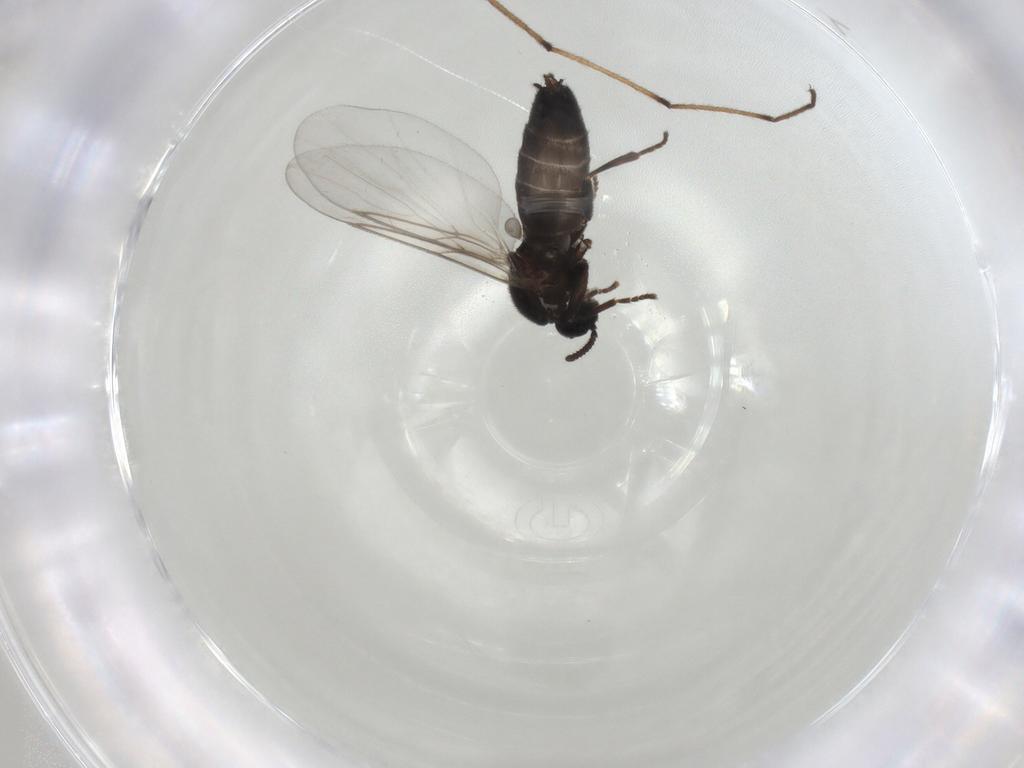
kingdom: Animalia
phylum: Arthropoda
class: Insecta
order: Diptera
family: Scatopsidae
